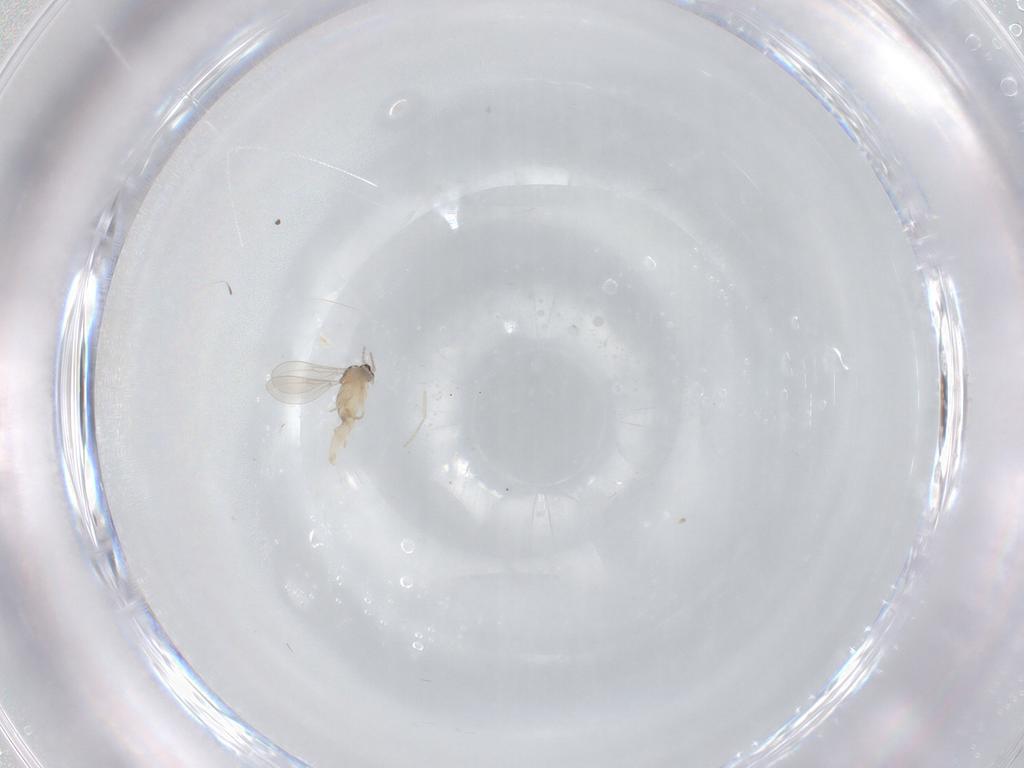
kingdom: Animalia
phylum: Arthropoda
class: Insecta
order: Diptera
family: Cecidomyiidae
